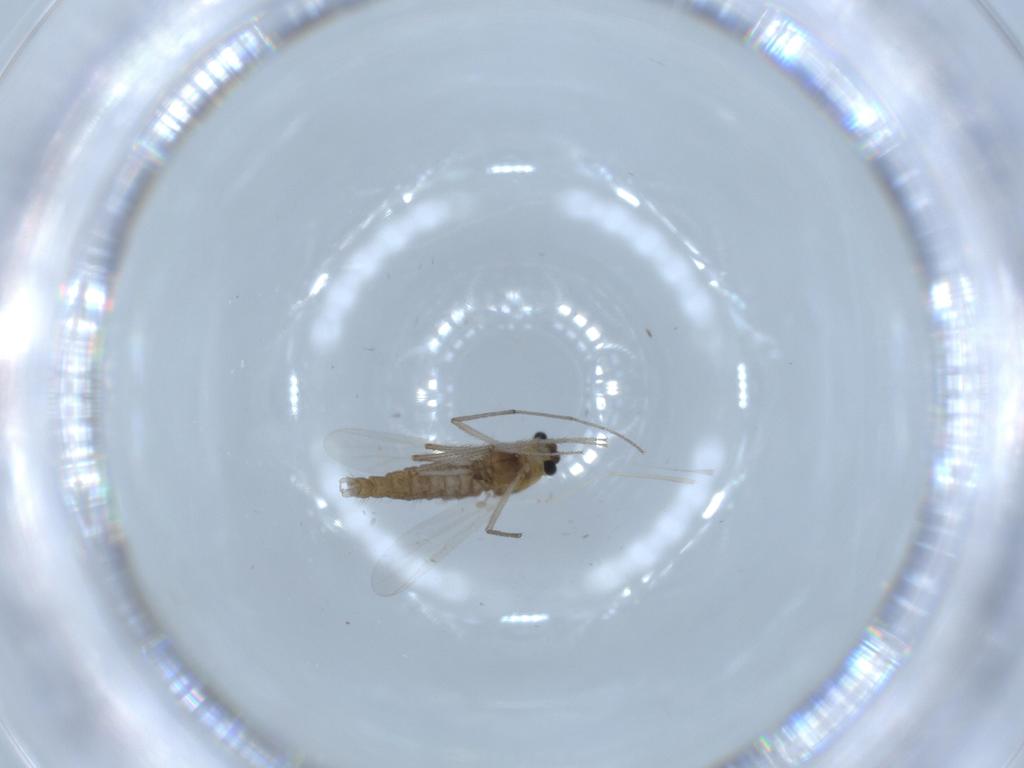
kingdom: Animalia
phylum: Arthropoda
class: Insecta
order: Diptera
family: Chironomidae
